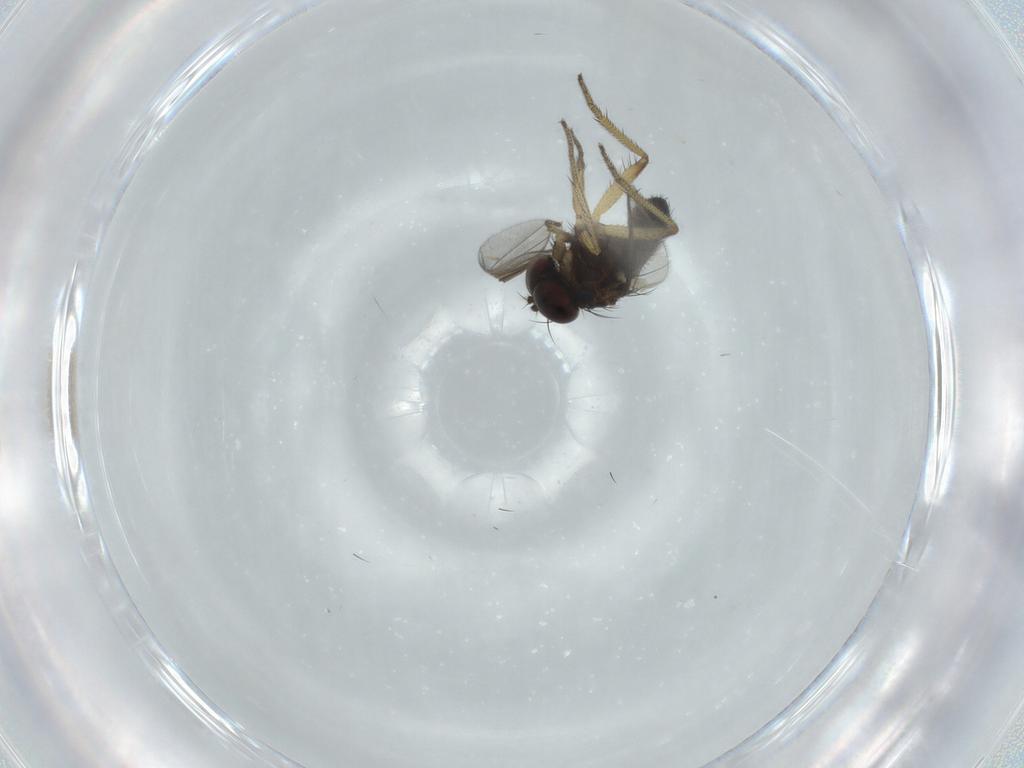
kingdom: Animalia
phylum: Arthropoda
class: Insecta
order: Diptera
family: Dolichopodidae
